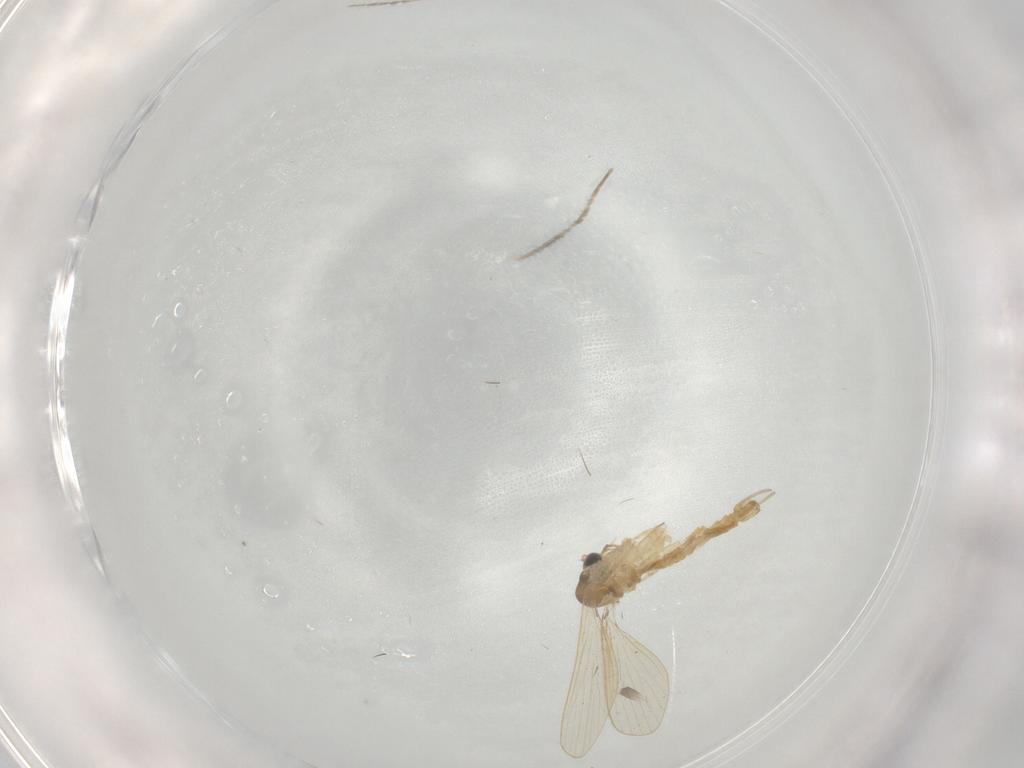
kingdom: Animalia
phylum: Arthropoda
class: Insecta
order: Diptera
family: Psychodidae
